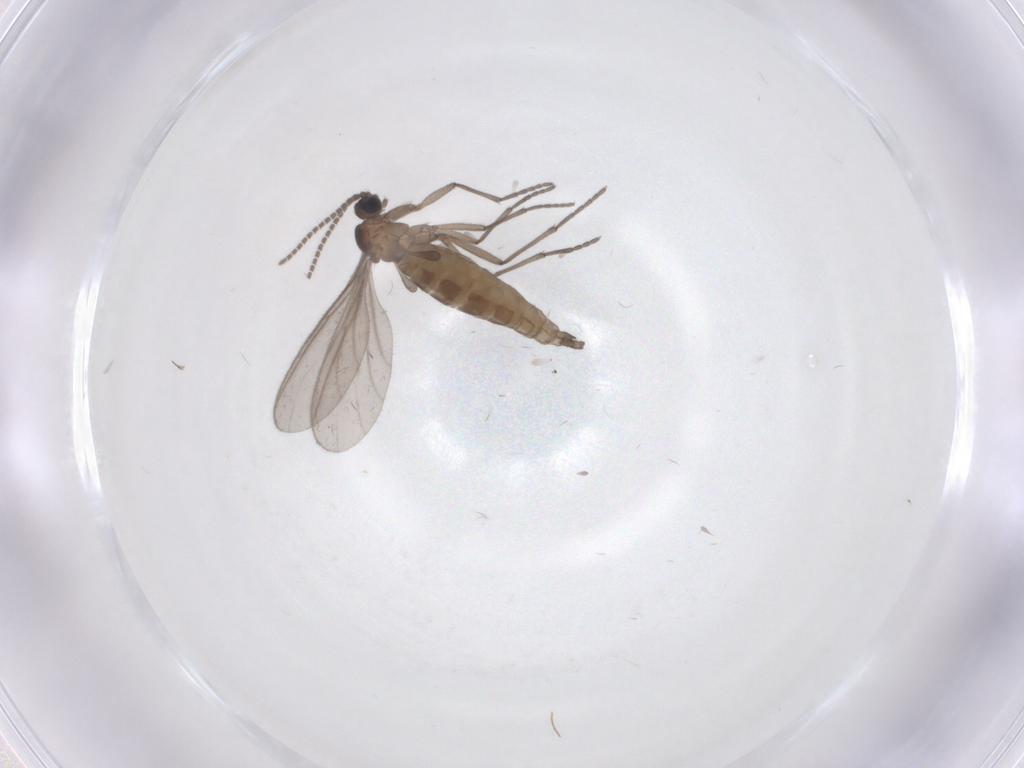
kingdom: Animalia
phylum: Arthropoda
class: Insecta
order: Diptera
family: Sciaridae
